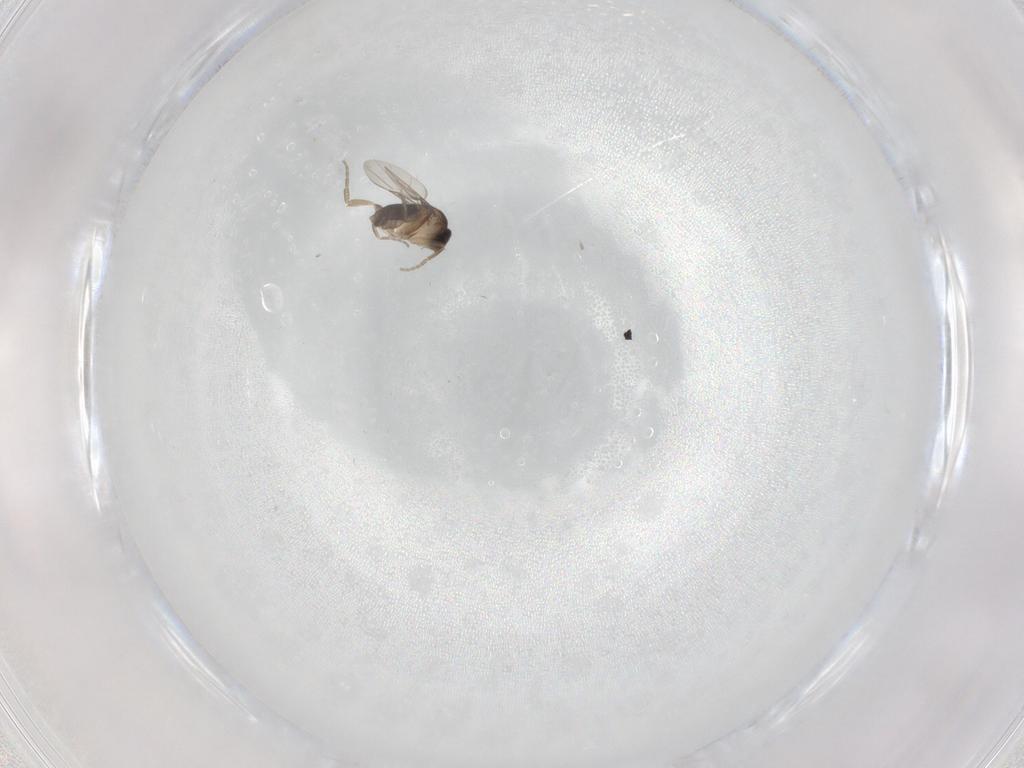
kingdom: Animalia
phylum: Arthropoda
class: Insecta
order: Diptera
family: Phoridae
